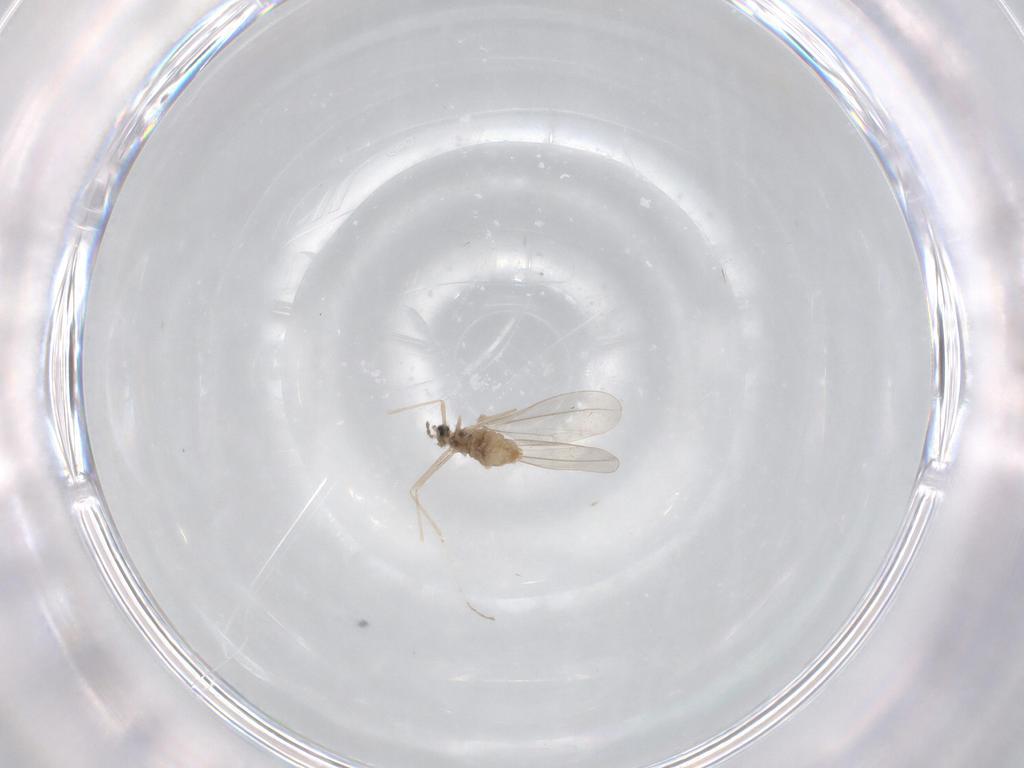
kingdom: Animalia
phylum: Arthropoda
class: Insecta
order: Diptera
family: Cecidomyiidae
